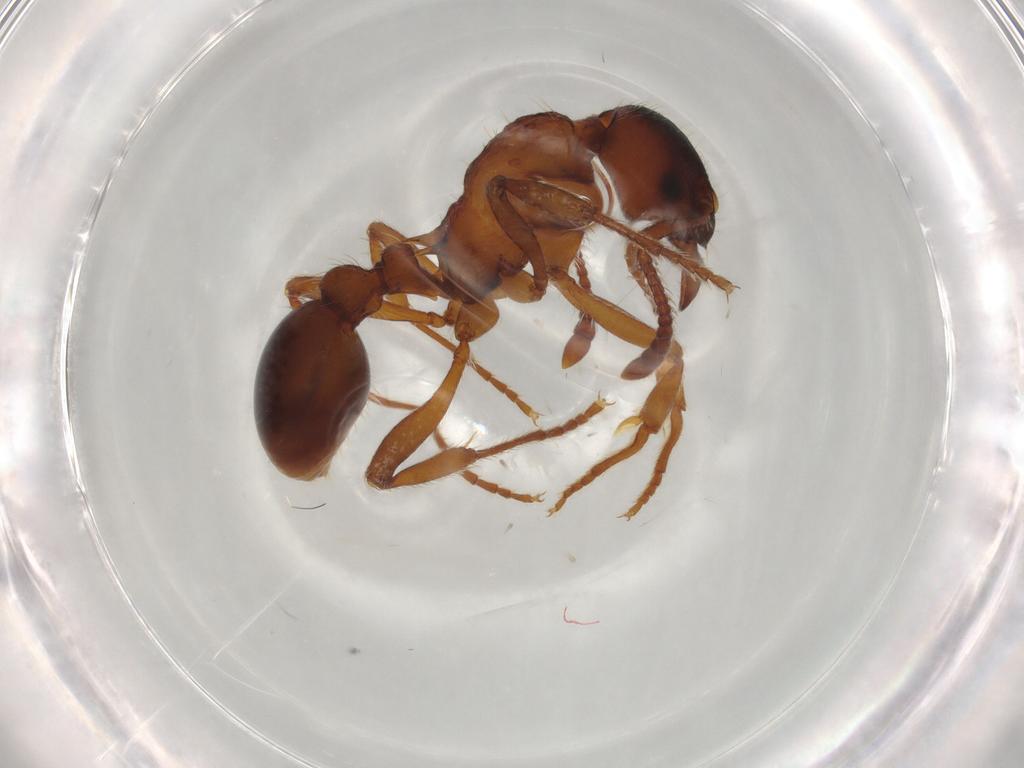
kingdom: Animalia
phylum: Arthropoda
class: Insecta
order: Hymenoptera
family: Formicidae
